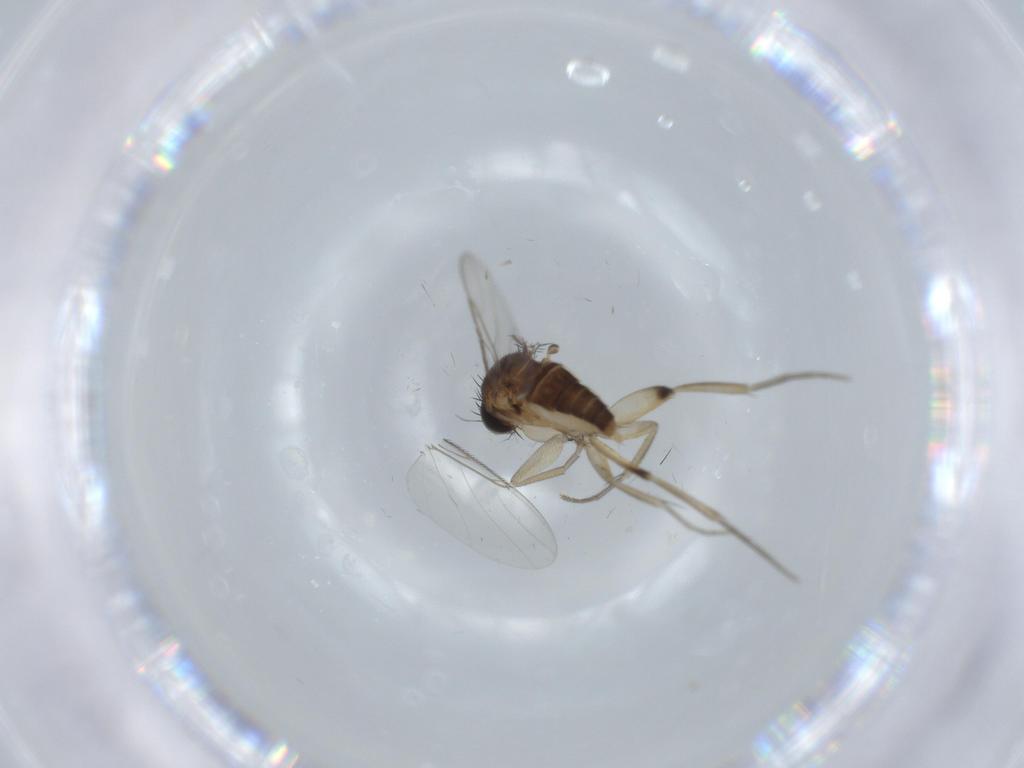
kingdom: Animalia
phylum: Arthropoda
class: Insecta
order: Diptera
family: Phoridae
